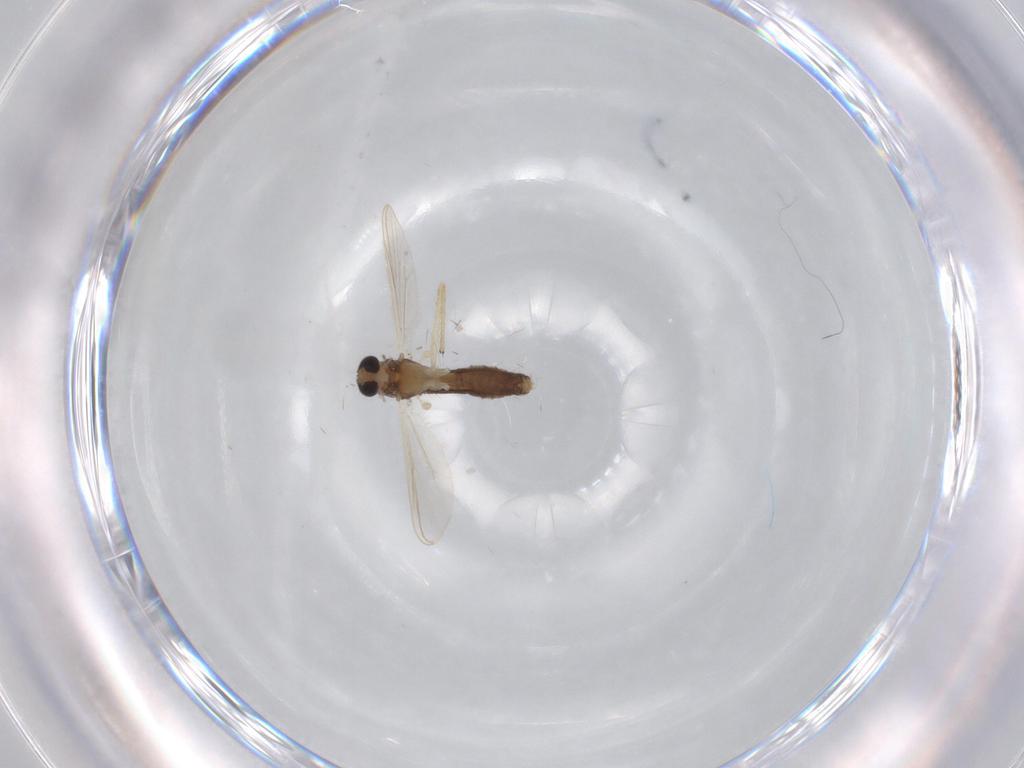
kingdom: Animalia
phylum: Arthropoda
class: Insecta
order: Diptera
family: Chironomidae
